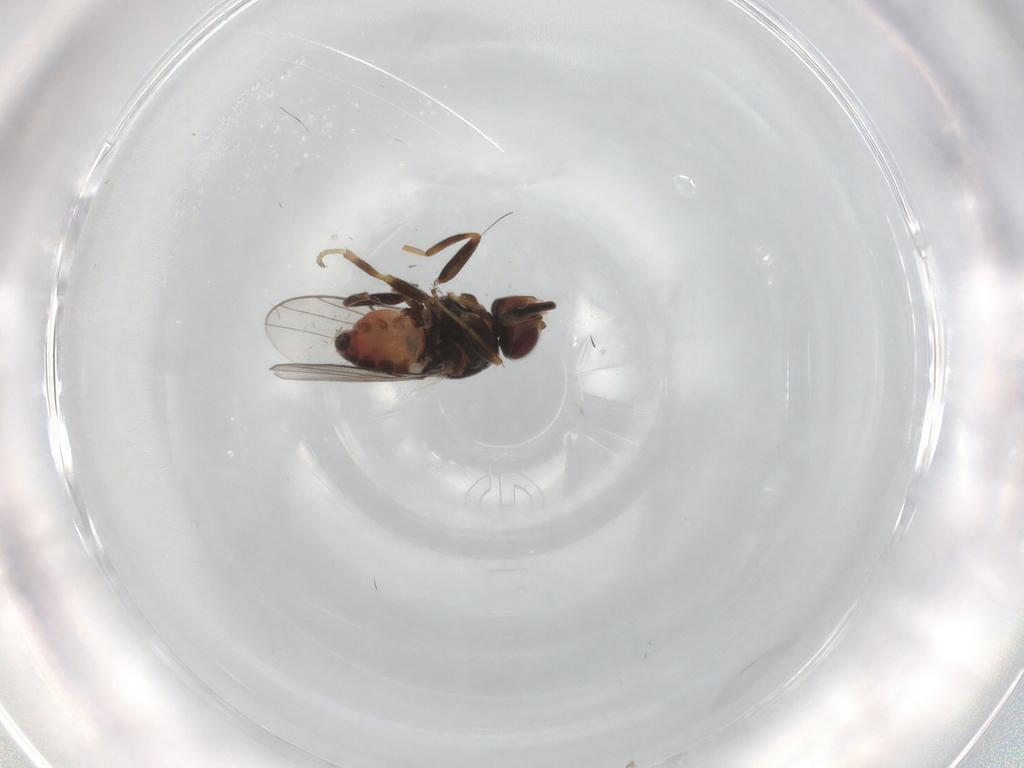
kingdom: Animalia
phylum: Arthropoda
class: Insecta
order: Diptera
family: Chloropidae
